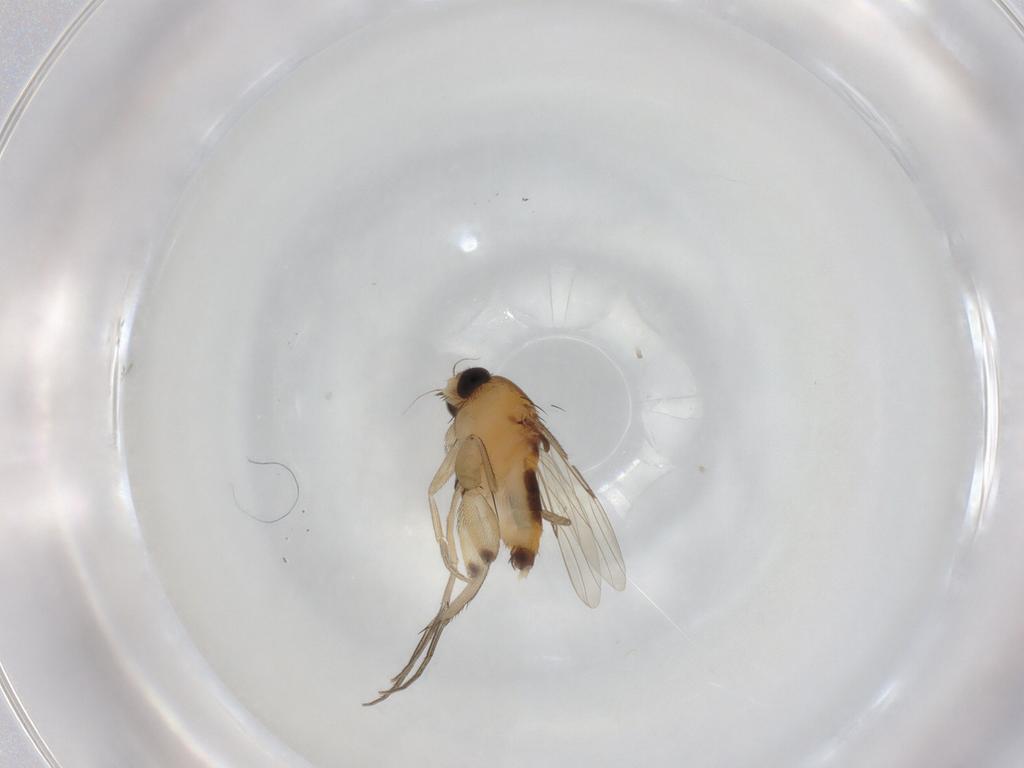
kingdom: Animalia
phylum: Arthropoda
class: Insecta
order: Diptera
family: Phoridae
